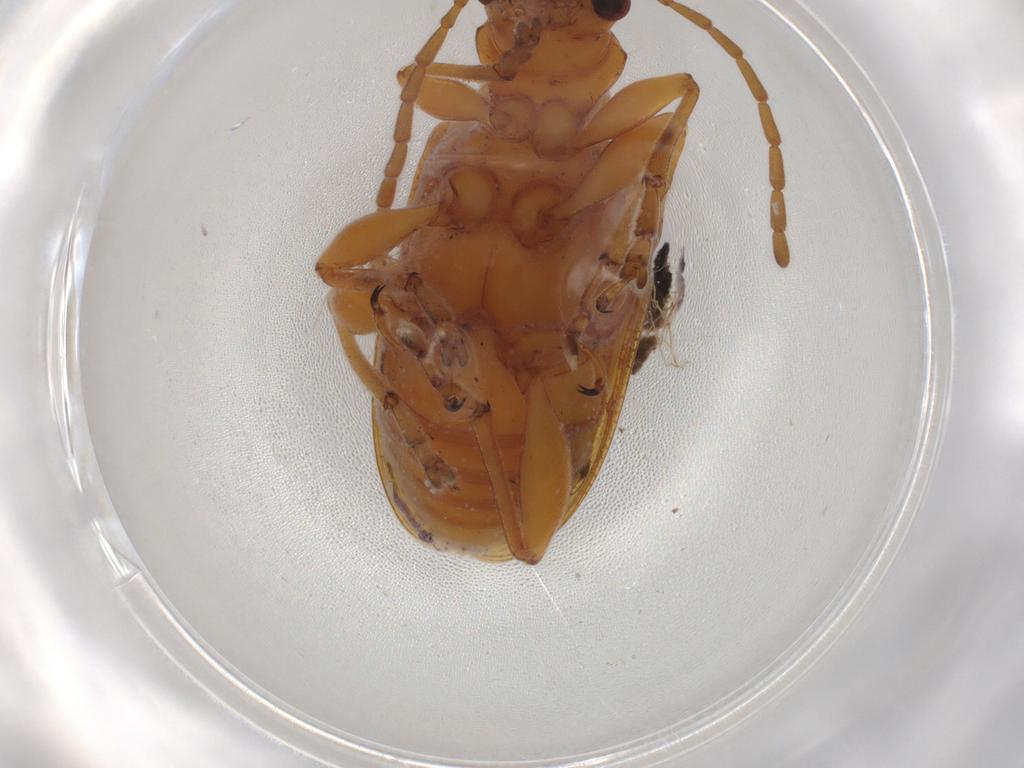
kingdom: Animalia
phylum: Arthropoda
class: Insecta
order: Coleoptera
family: Chrysomelidae
